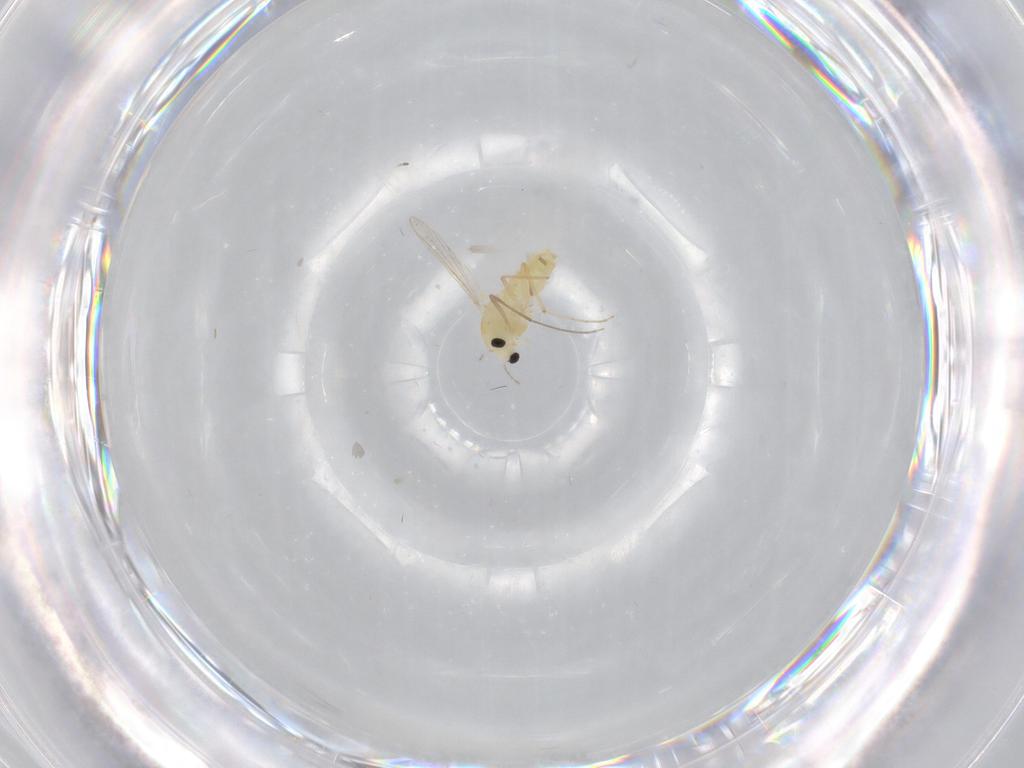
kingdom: Animalia
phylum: Arthropoda
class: Insecta
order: Diptera
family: Chironomidae
